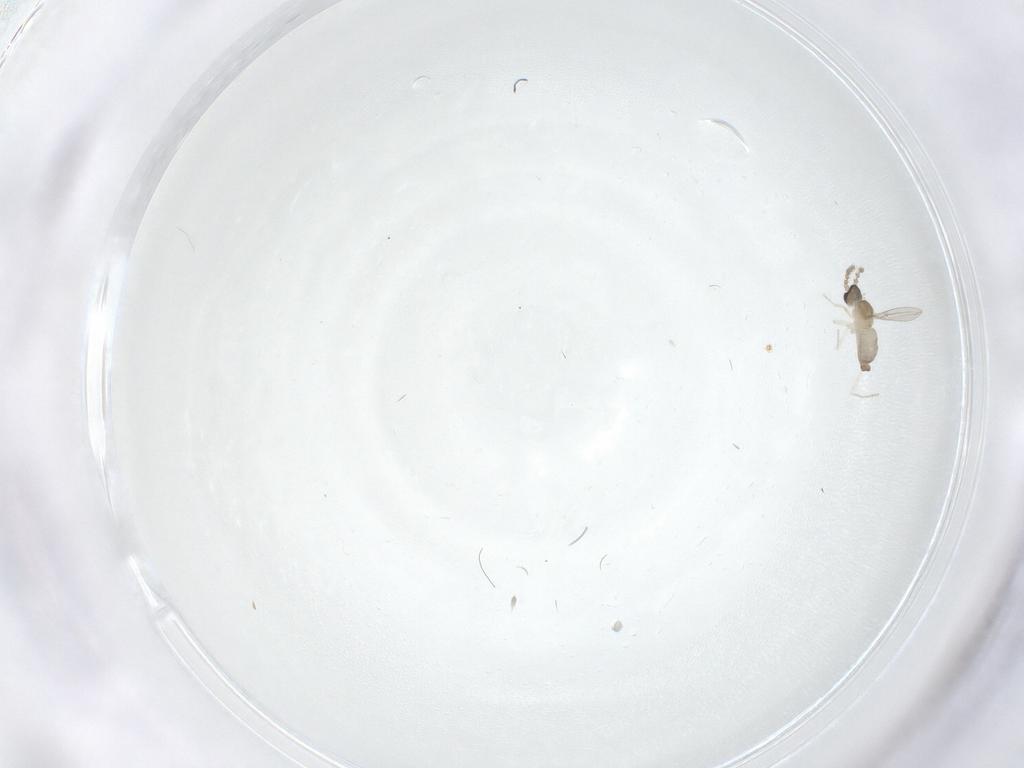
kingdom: Animalia
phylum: Arthropoda
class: Insecta
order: Diptera
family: Cecidomyiidae
